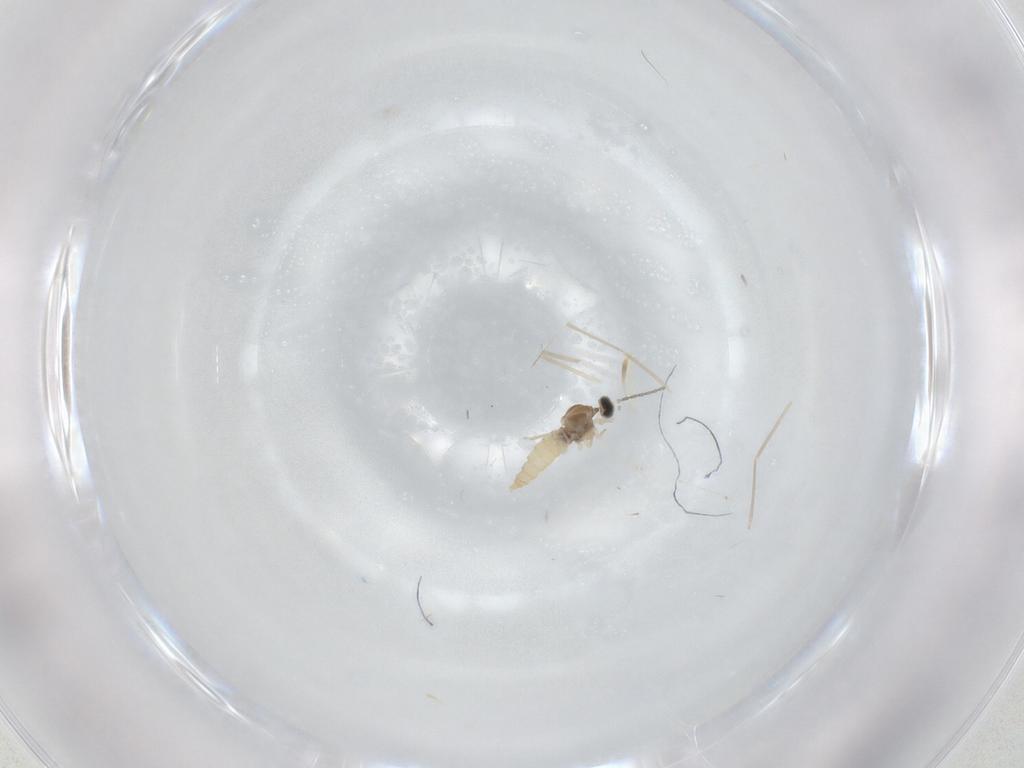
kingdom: Animalia
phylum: Arthropoda
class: Insecta
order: Diptera
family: Cecidomyiidae
